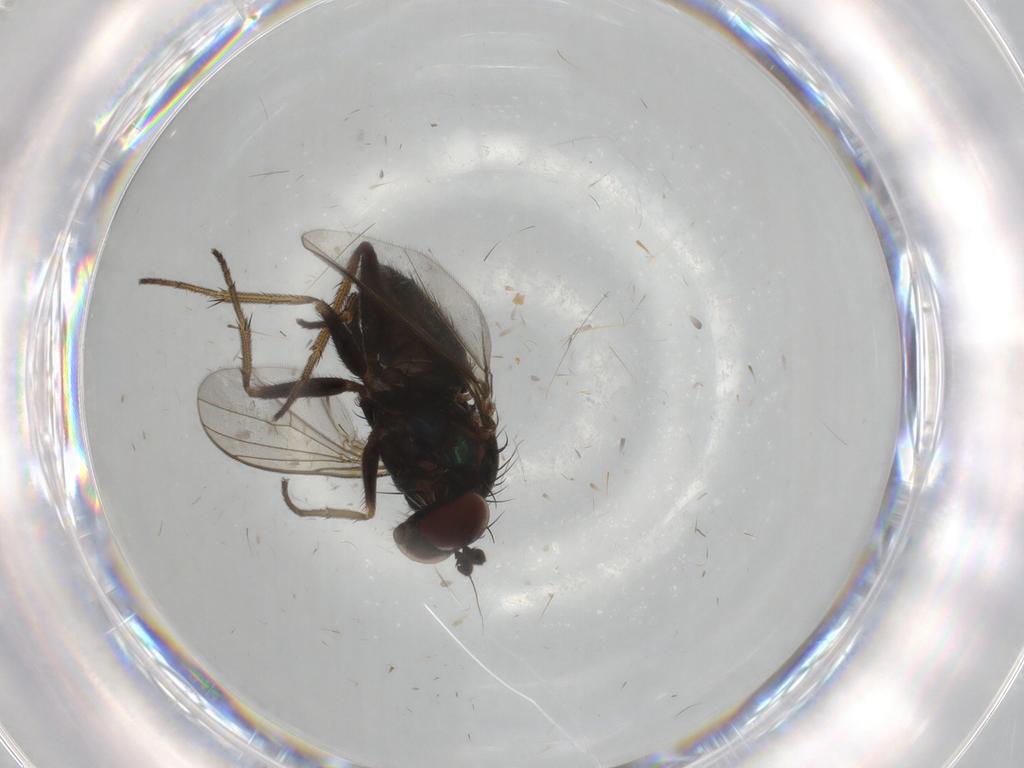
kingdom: Animalia
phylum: Arthropoda
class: Insecta
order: Diptera
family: Dolichopodidae
